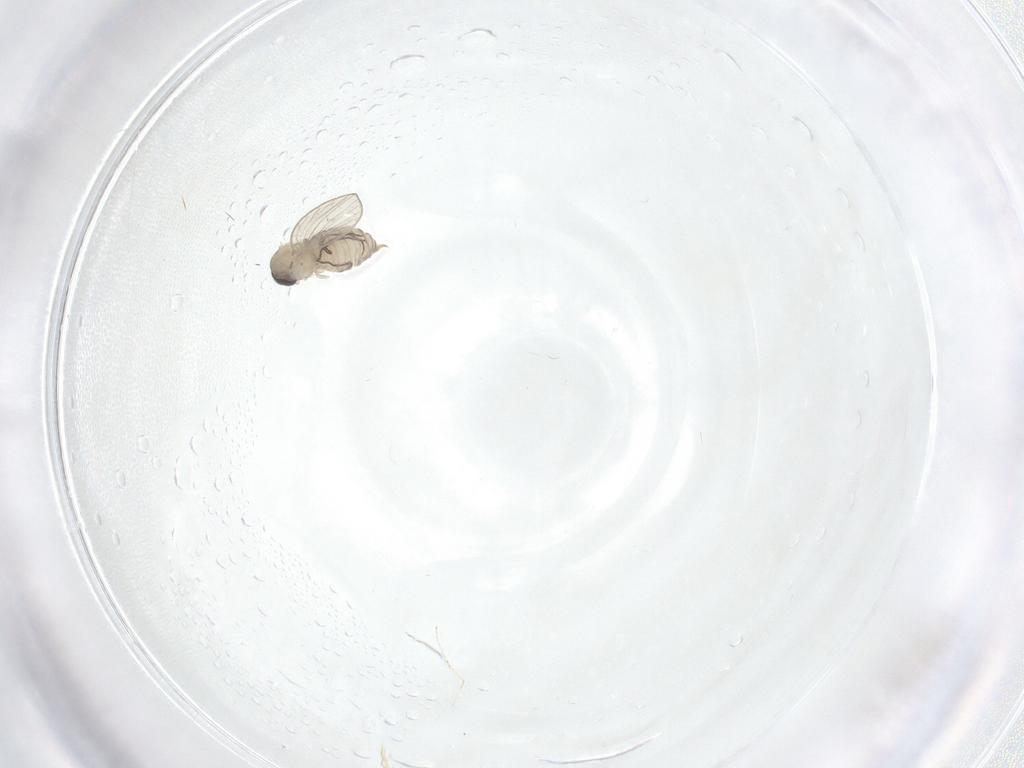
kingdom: Animalia
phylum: Arthropoda
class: Insecta
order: Diptera
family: Psychodidae
